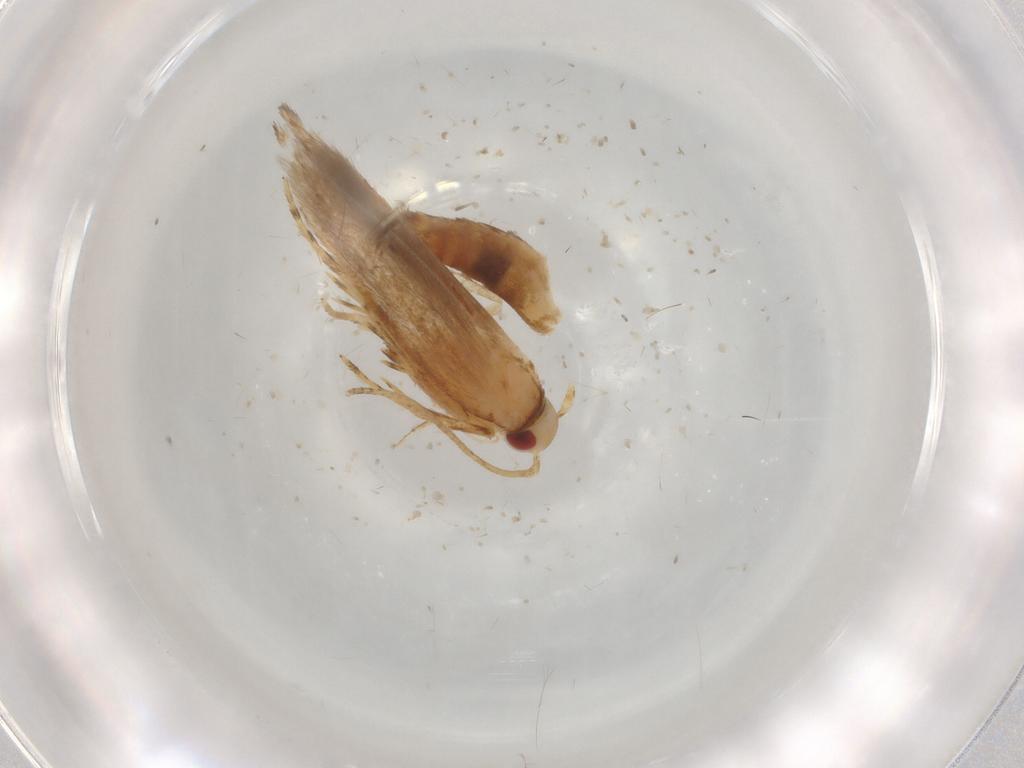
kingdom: Animalia
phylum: Arthropoda
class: Insecta
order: Lepidoptera
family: Cosmopterigidae
